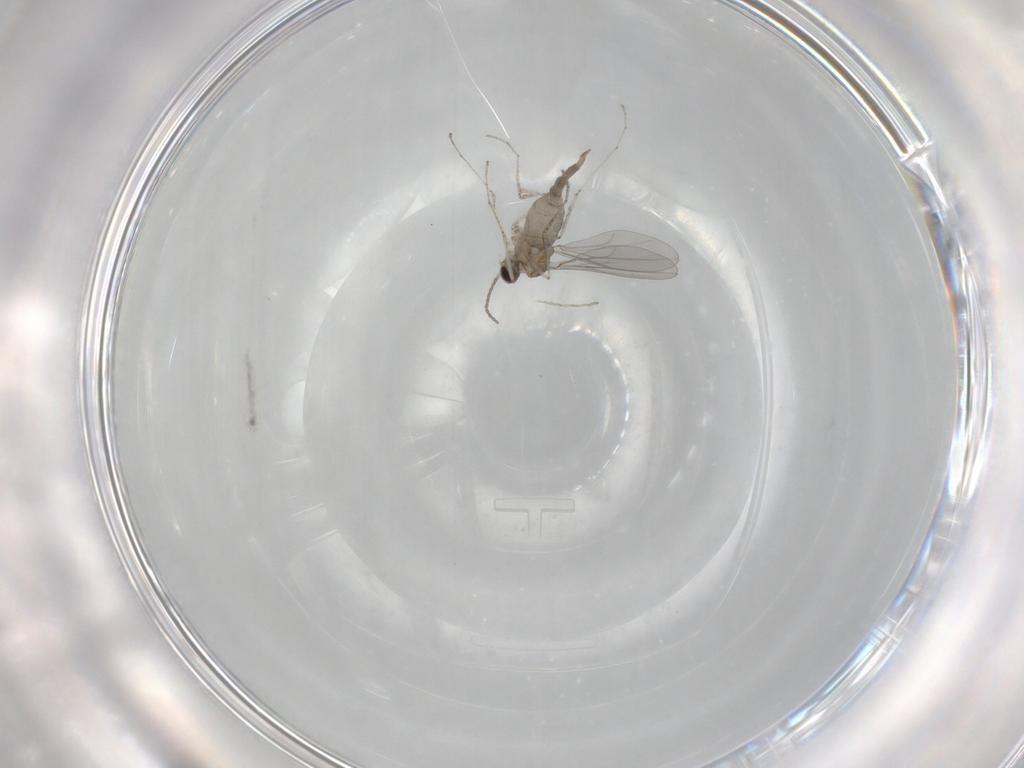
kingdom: Animalia
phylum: Arthropoda
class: Insecta
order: Diptera
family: Cecidomyiidae
